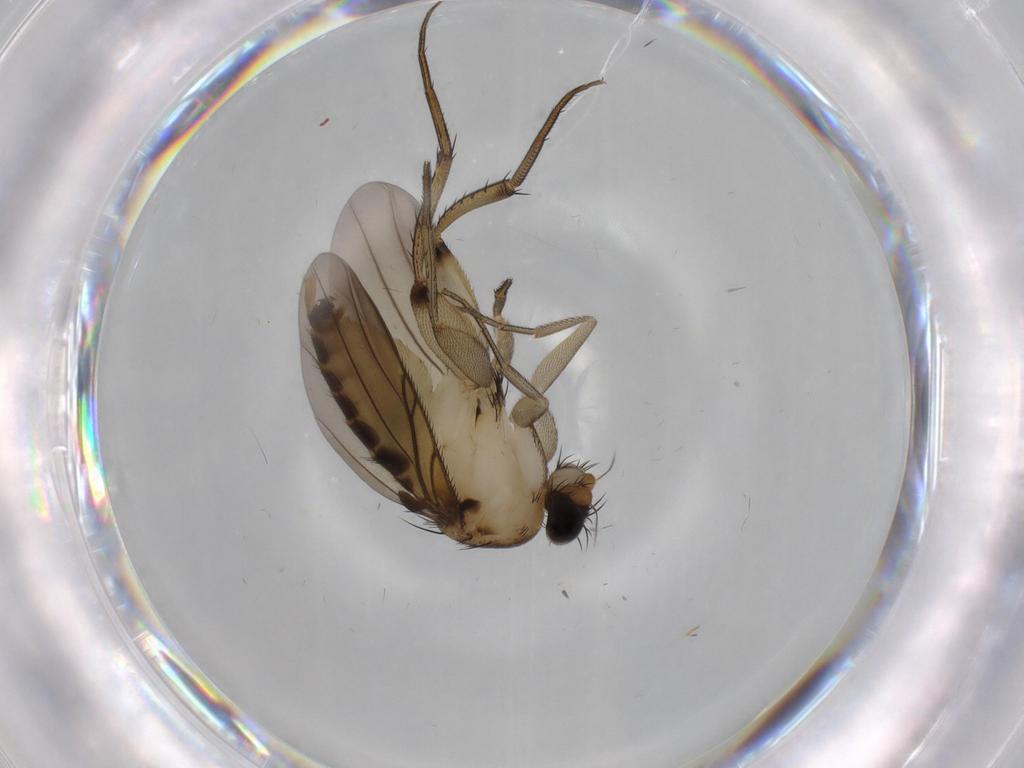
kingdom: Animalia
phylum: Arthropoda
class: Insecta
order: Diptera
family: Phoridae
